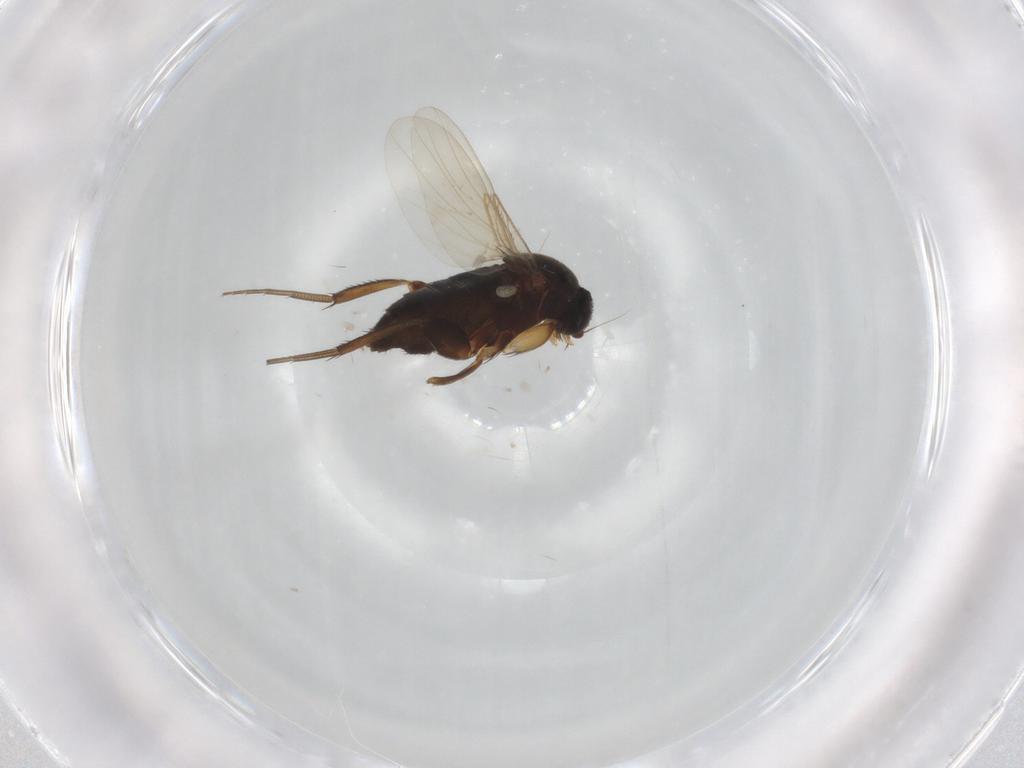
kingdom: Animalia
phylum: Arthropoda
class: Insecta
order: Diptera
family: Phoridae
